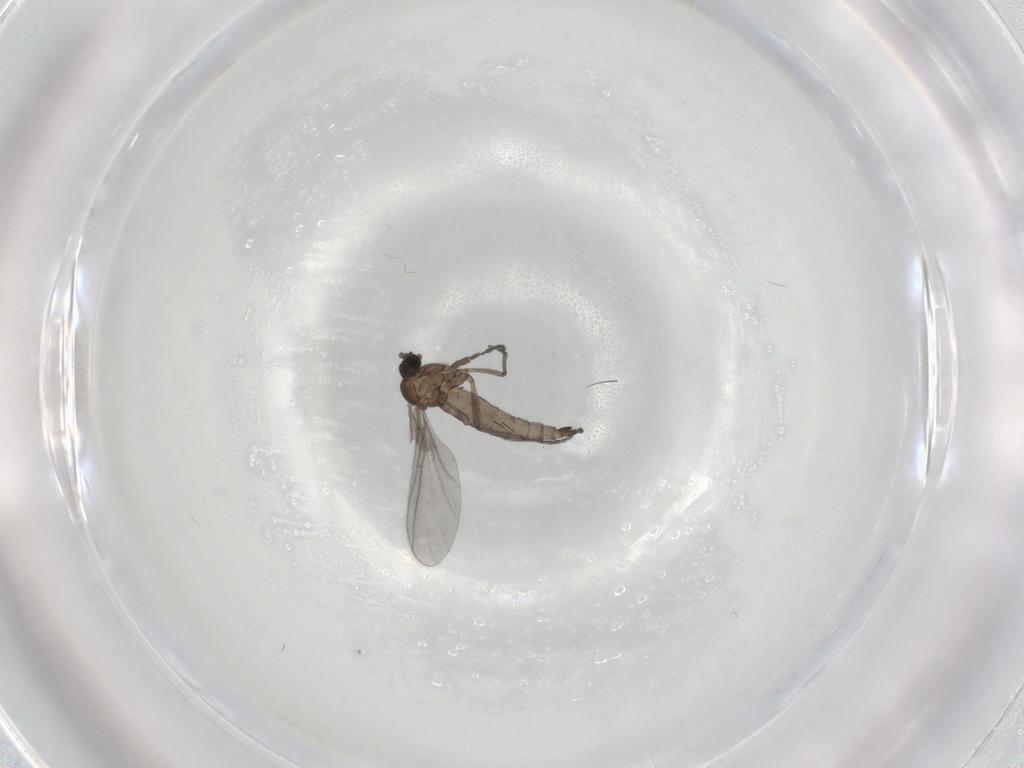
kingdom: Animalia
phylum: Arthropoda
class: Insecta
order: Diptera
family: Sciaridae
